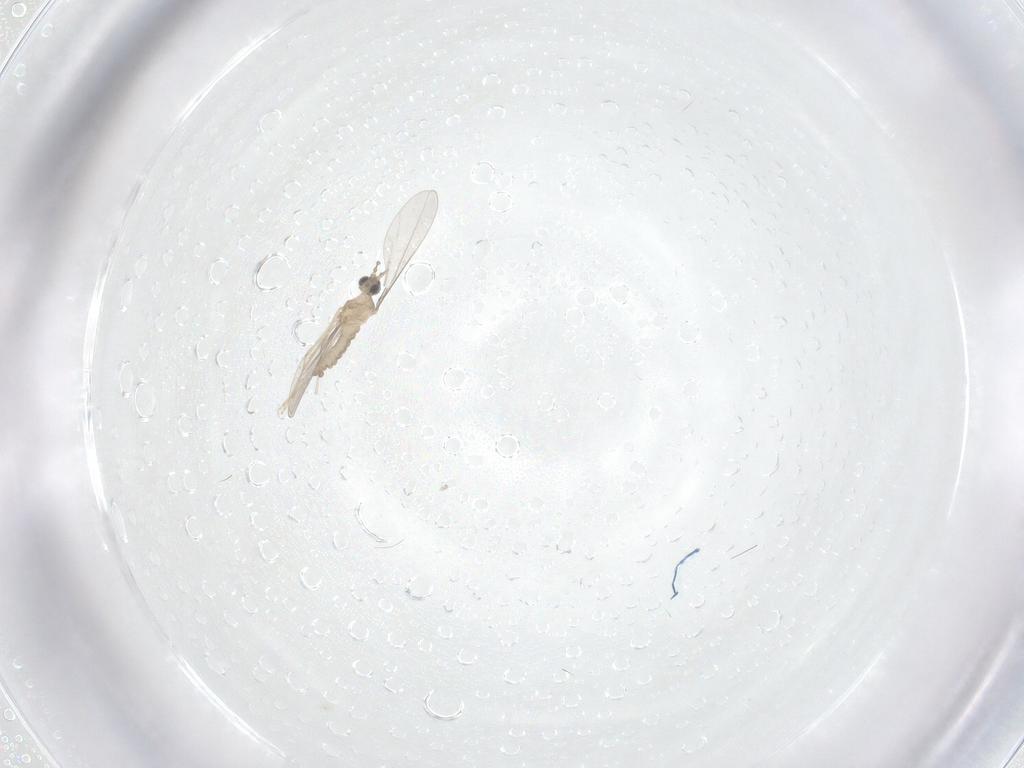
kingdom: Animalia
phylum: Arthropoda
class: Insecta
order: Diptera
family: Cecidomyiidae
